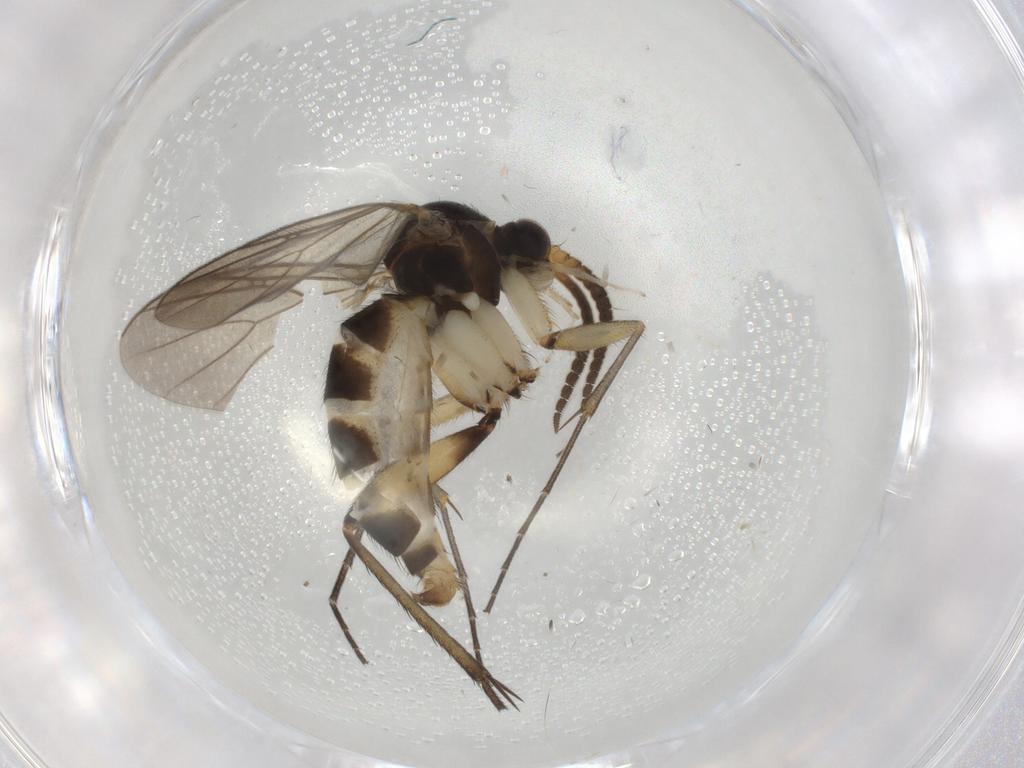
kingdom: Animalia
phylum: Arthropoda
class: Insecta
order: Diptera
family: Mycetophilidae
